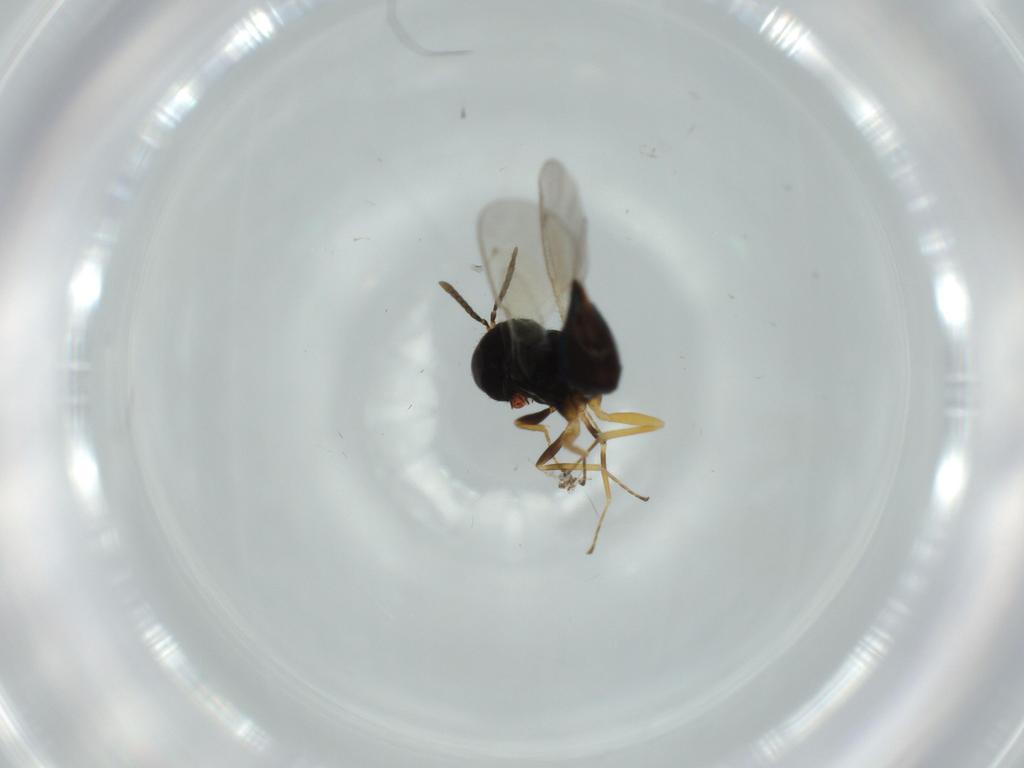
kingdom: Animalia
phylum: Arthropoda
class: Insecta
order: Hymenoptera
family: Pteromalidae
